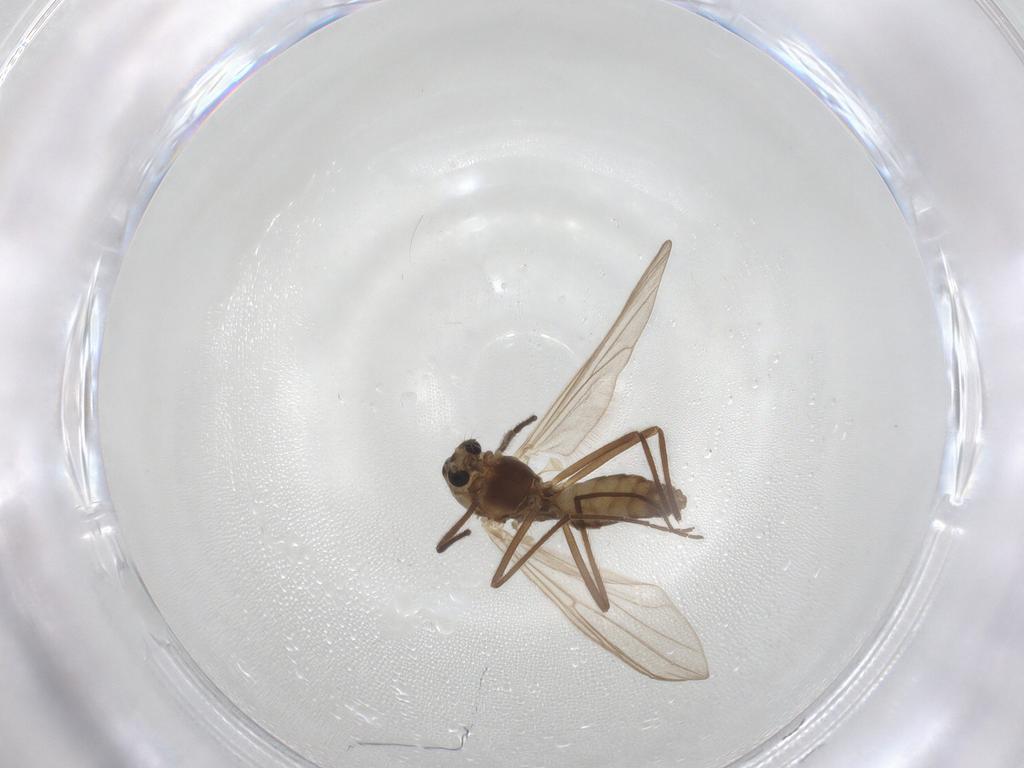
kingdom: Animalia
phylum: Arthropoda
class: Insecta
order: Diptera
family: Chironomidae
